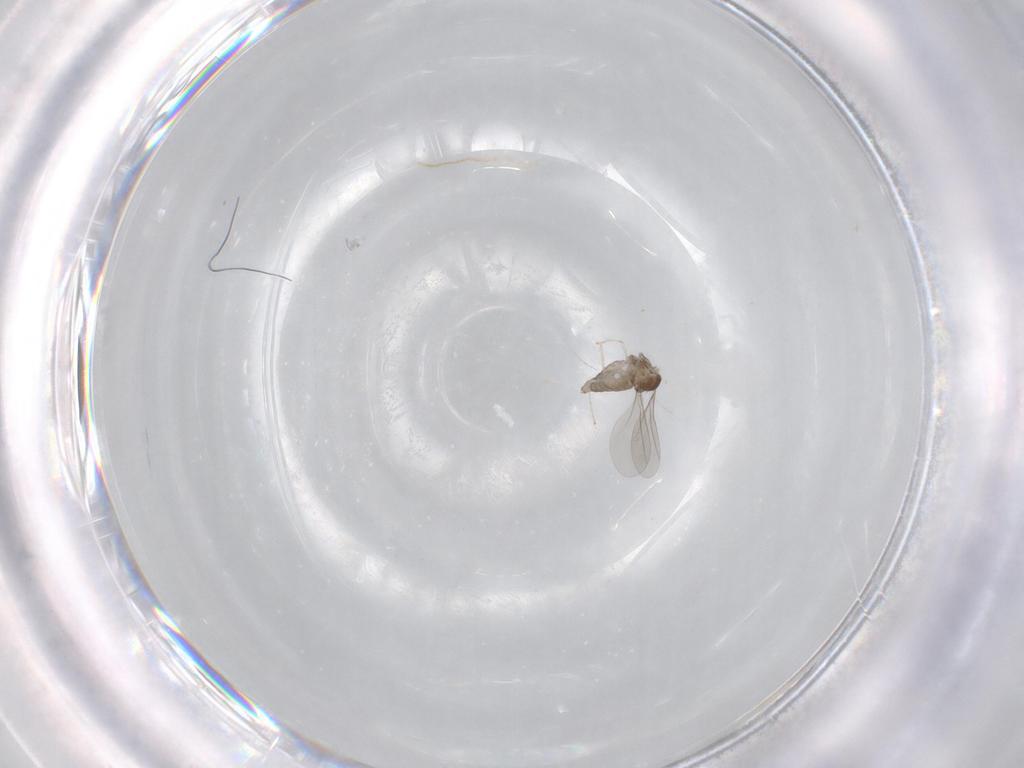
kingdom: Animalia
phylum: Arthropoda
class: Insecta
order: Diptera
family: Cecidomyiidae
